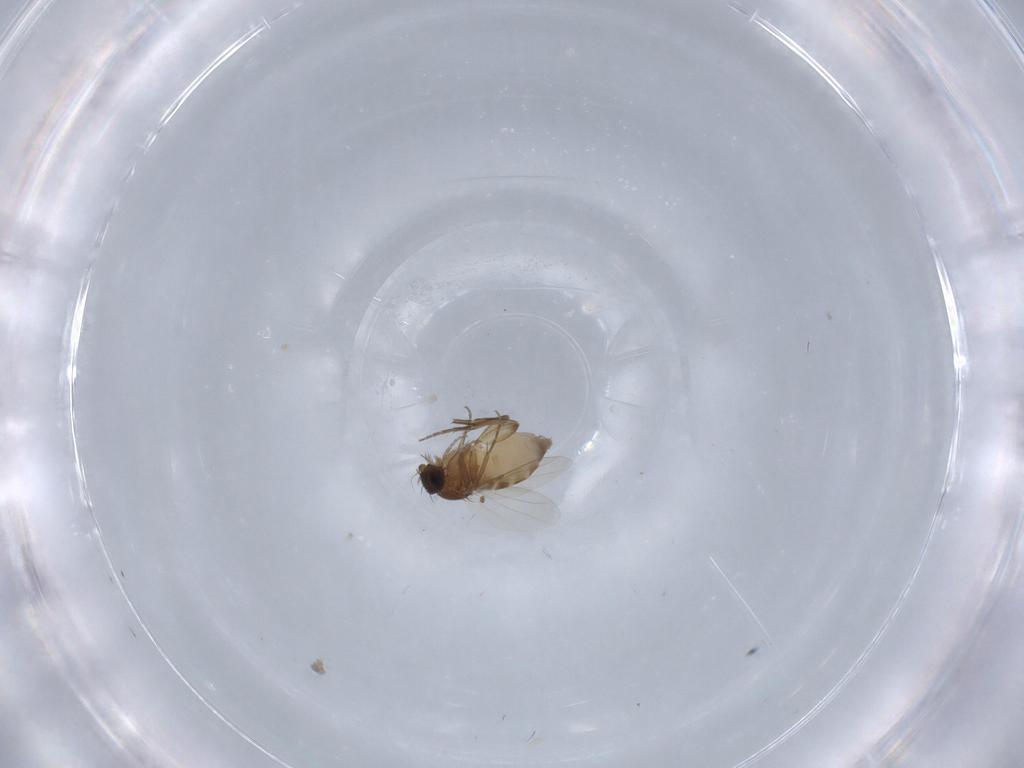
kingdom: Animalia
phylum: Arthropoda
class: Insecta
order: Diptera
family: Phoridae
